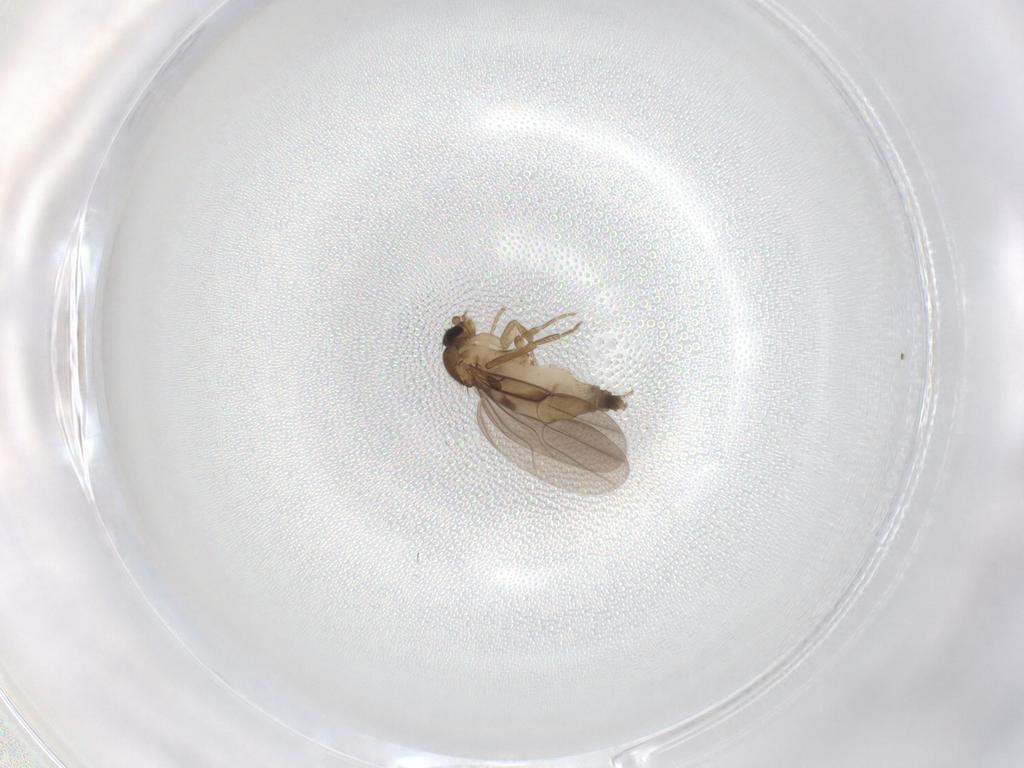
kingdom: Animalia
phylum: Arthropoda
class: Insecta
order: Diptera
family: Phoridae
